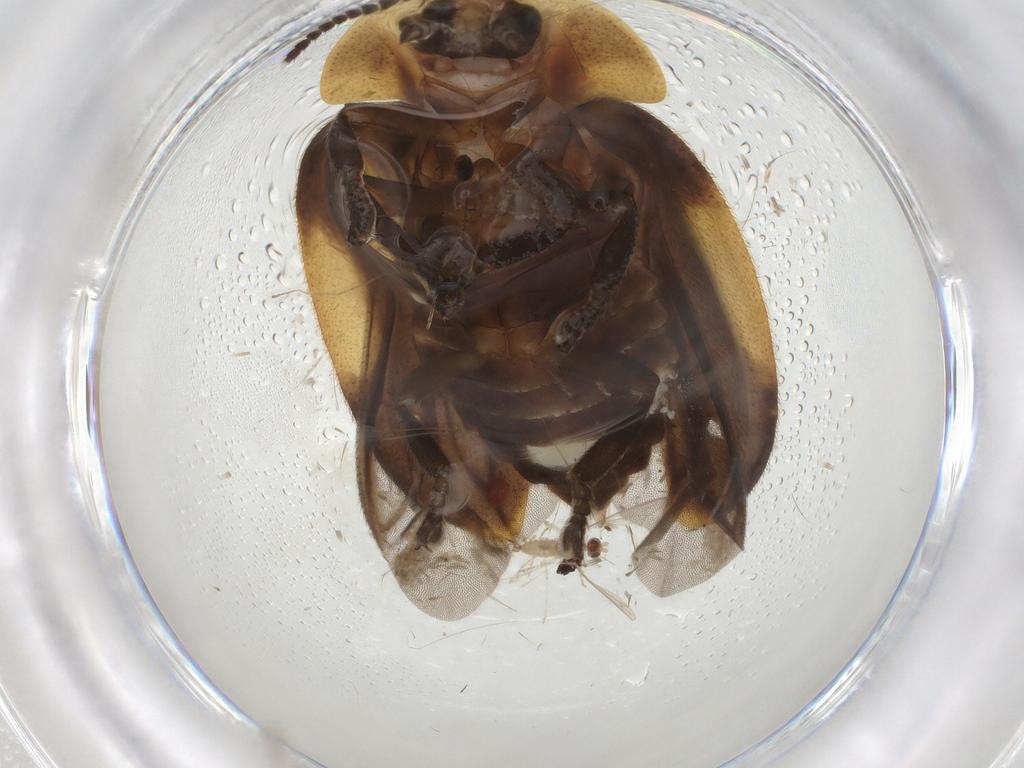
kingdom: Animalia
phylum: Arthropoda
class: Insecta
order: Coleoptera
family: Lampyridae
